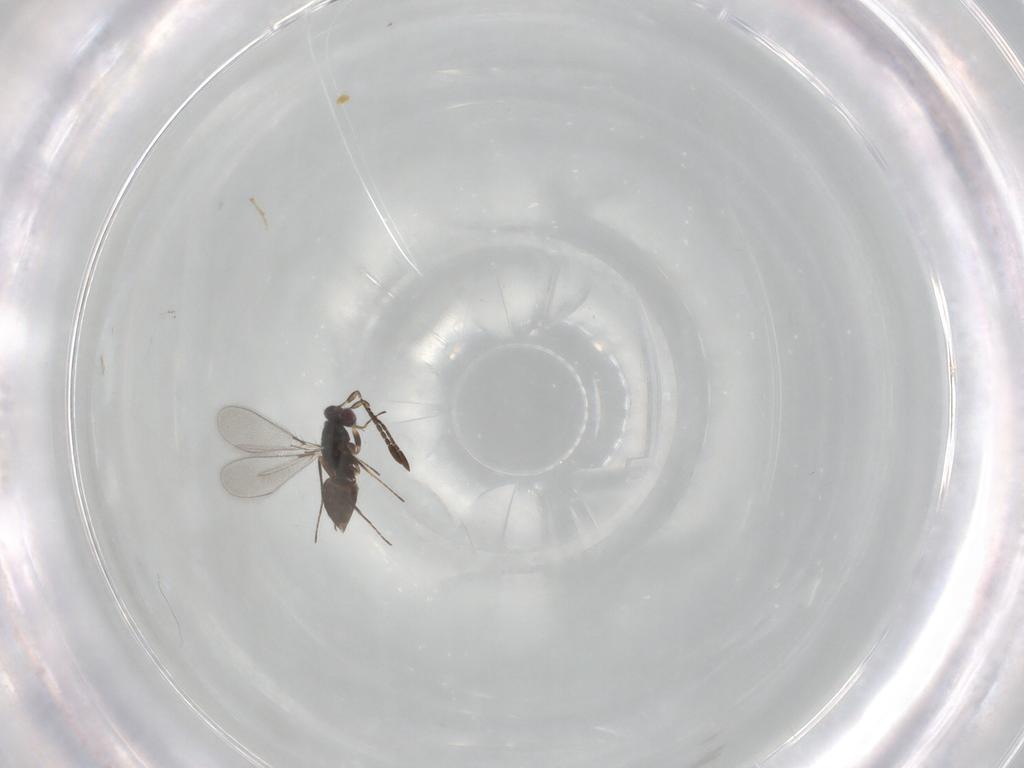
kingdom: Animalia
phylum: Arthropoda
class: Insecta
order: Hymenoptera
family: Mymaridae
